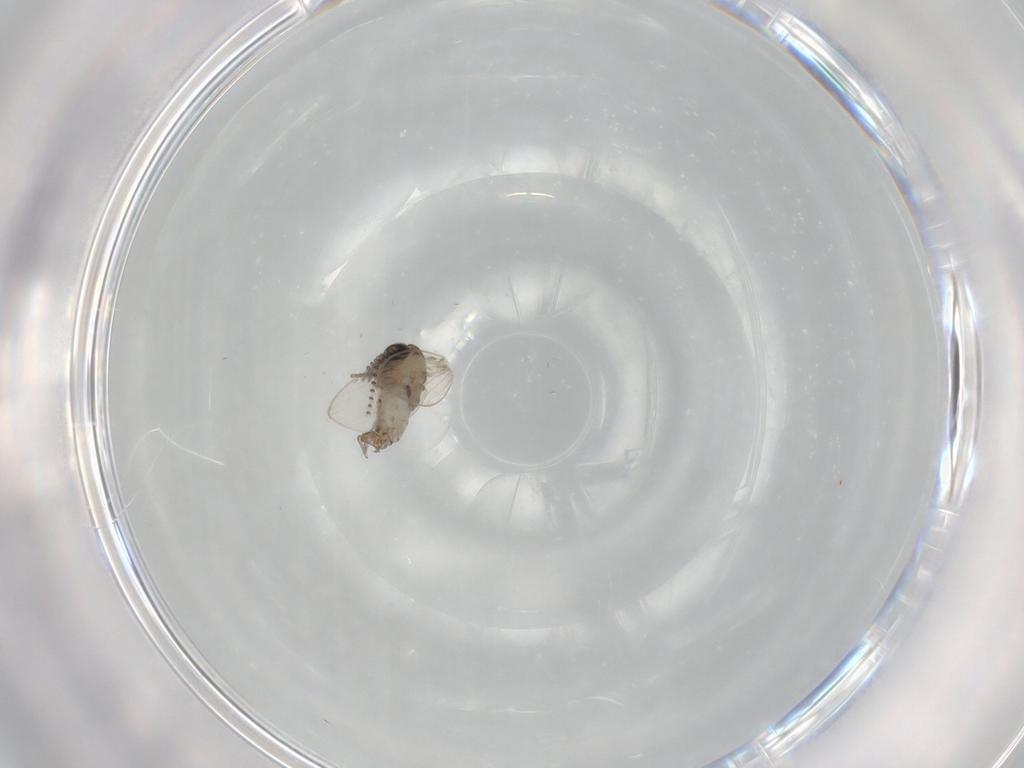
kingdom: Animalia
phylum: Arthropoda
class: Insecta
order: Diptera
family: Psychodidae
